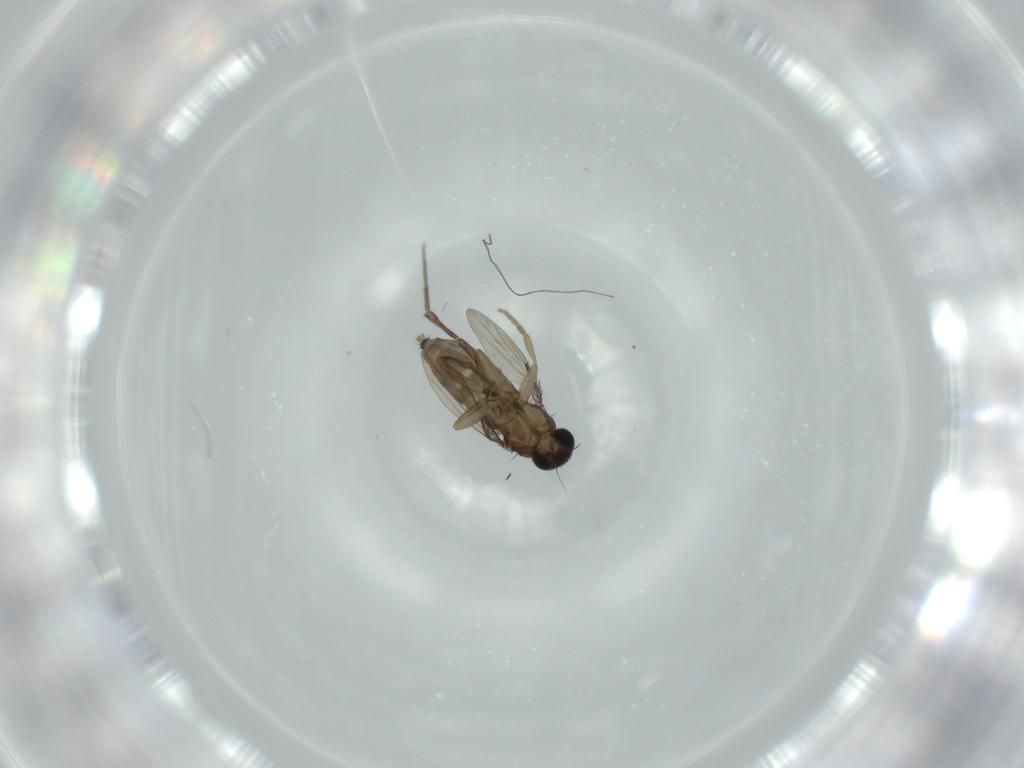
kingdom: Animalia
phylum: Arthropoda
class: Insecta
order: Diptera
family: Phoridae
